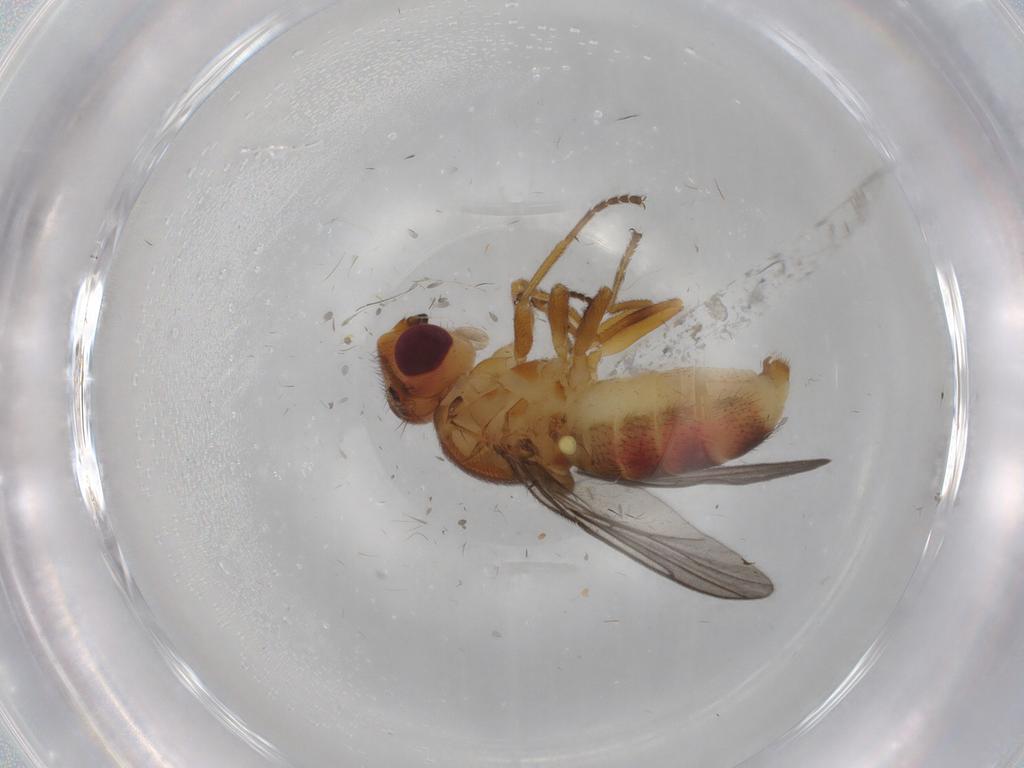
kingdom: Animalia
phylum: Arthropoda
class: Insecta
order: Diptera
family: Chloropidae
